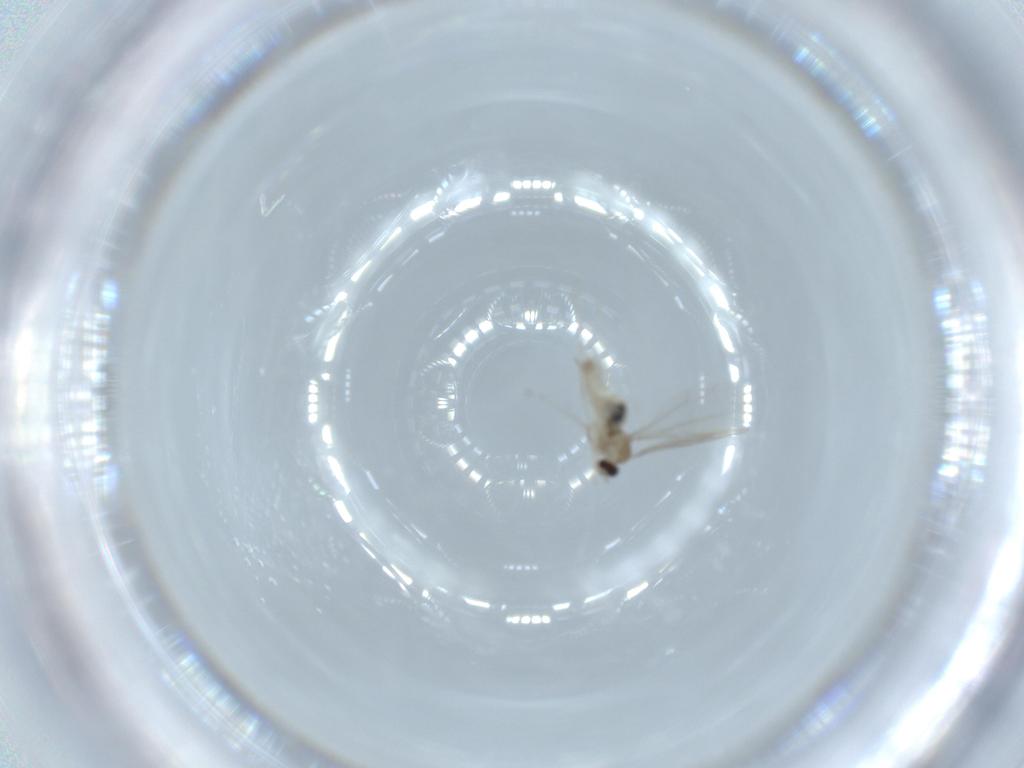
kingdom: Animalia
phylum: Arthropoda
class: Insecta
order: Diptera
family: Cecidomyiidae
